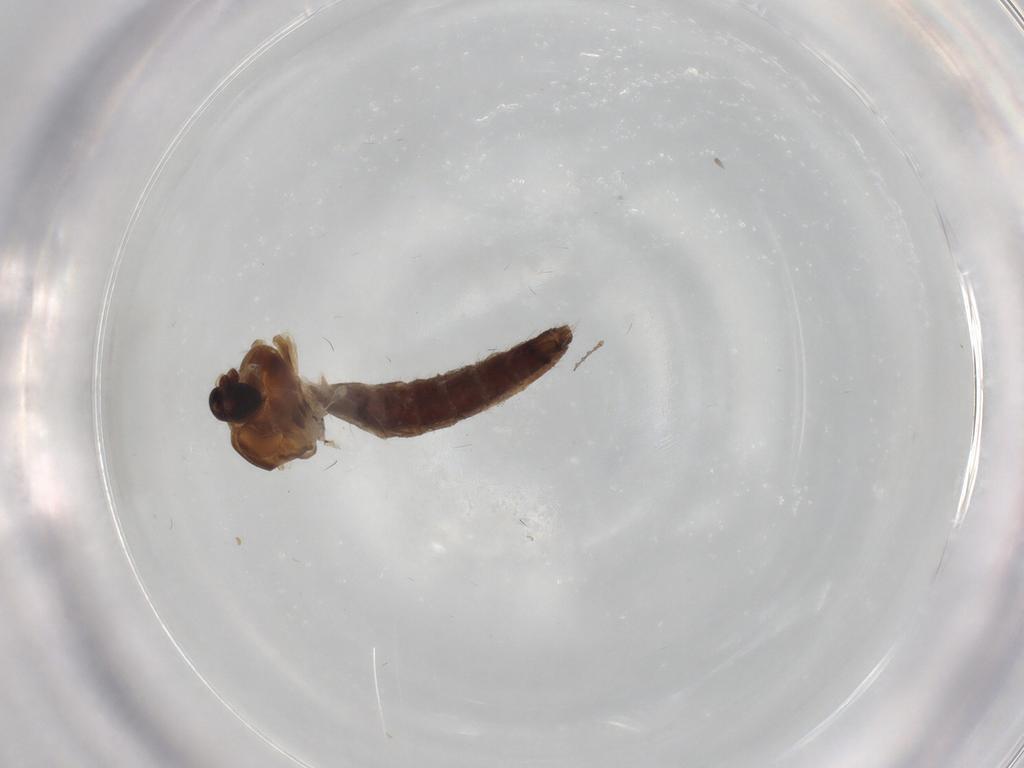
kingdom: Animalia
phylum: Arthropoda
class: Insecta
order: Diptera
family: Chironomidae
